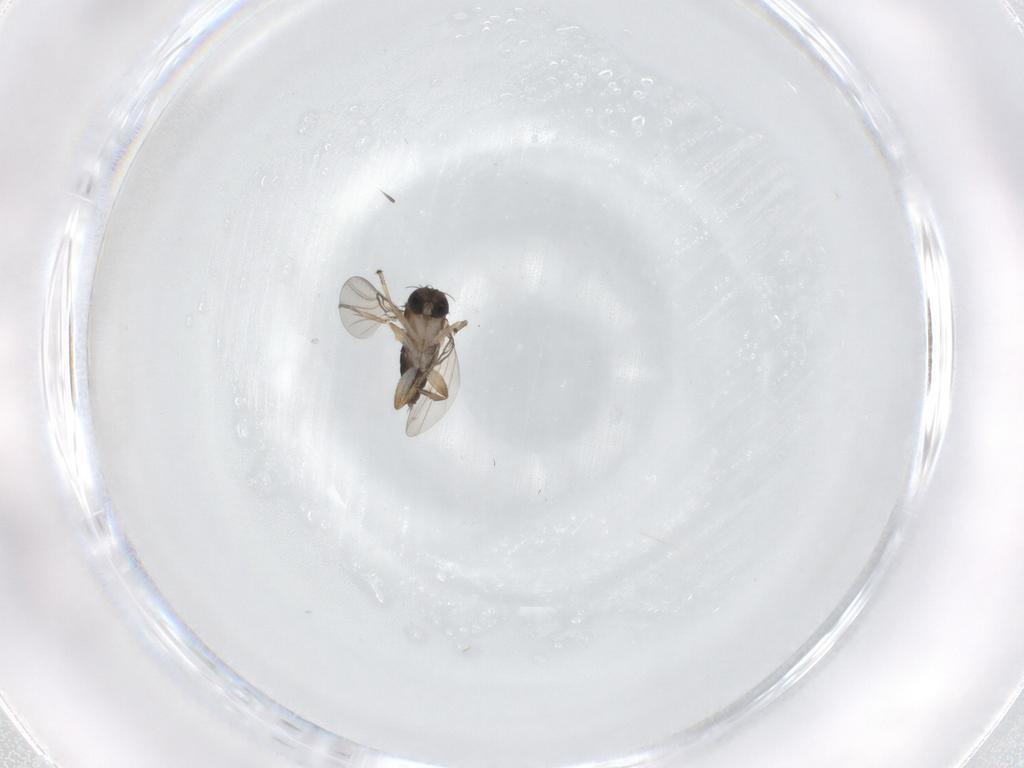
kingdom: Animalia
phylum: Arthropoda
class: Insecta
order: Diptera
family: Phoridae
